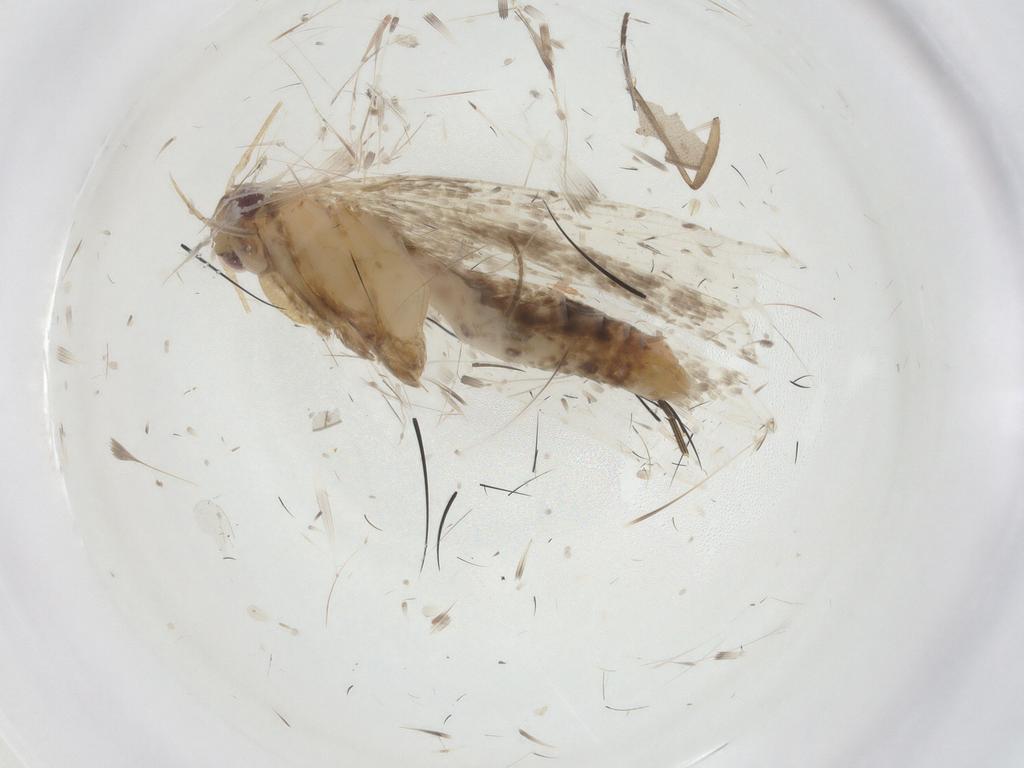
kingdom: Animalia
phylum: Arthropoda
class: Insecta
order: Lepidoptera
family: Gelechiidae
